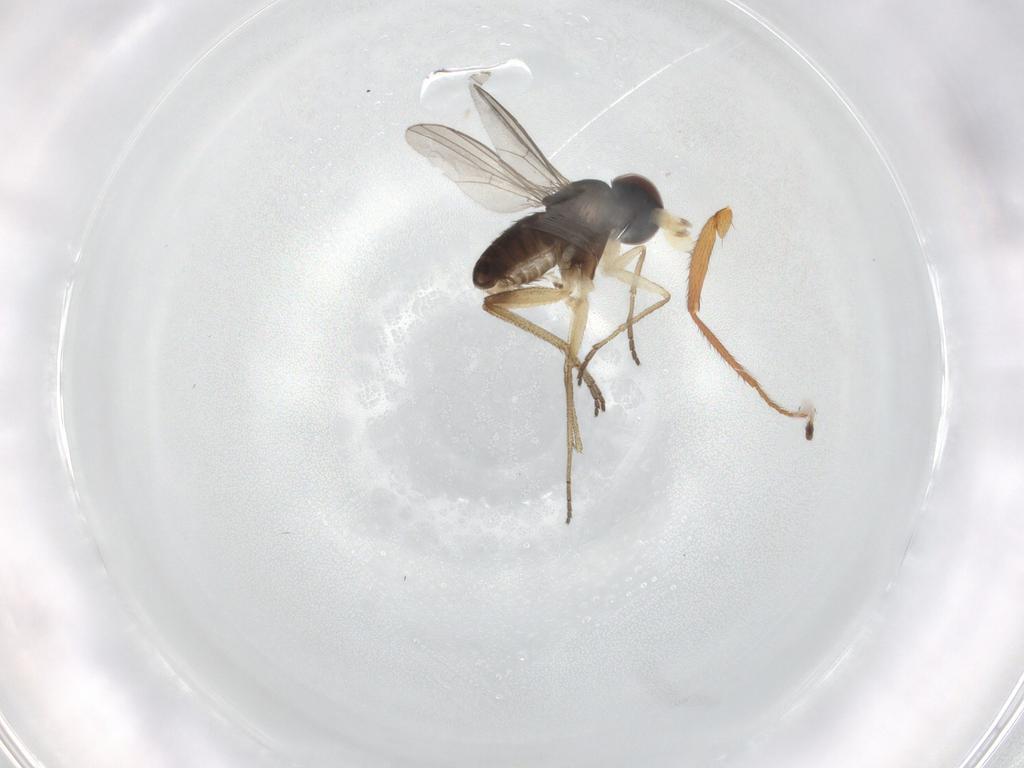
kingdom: Animalia
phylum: Arthropoda
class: Insecta
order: Diptera
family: Dolichopodidae
